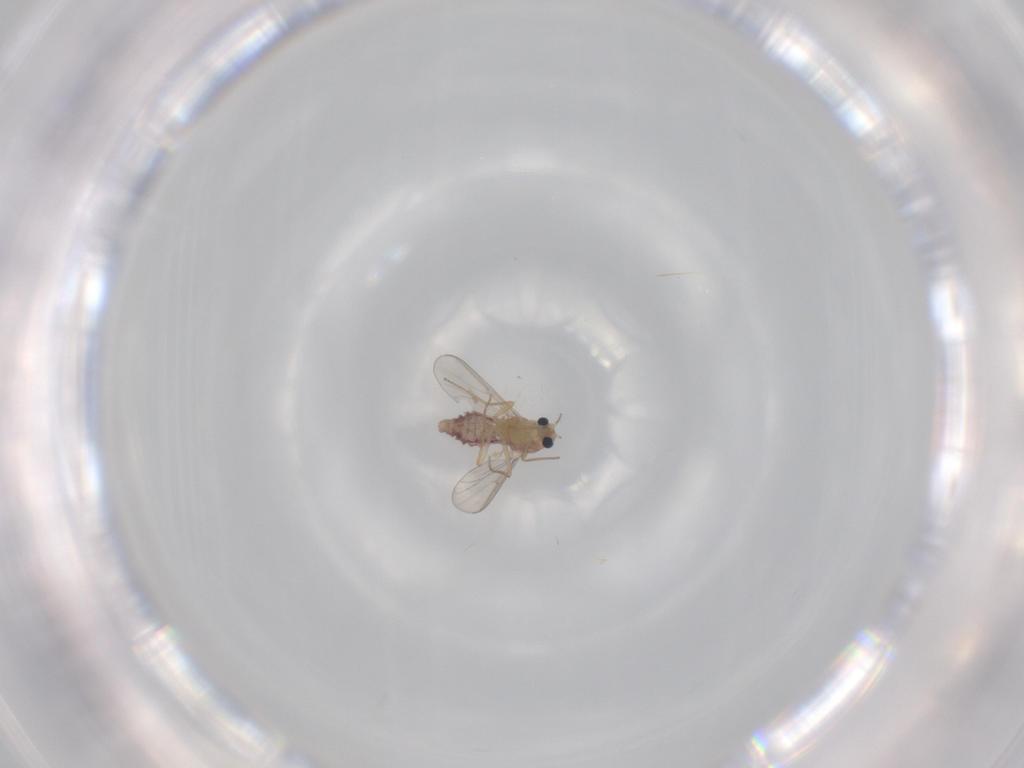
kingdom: Animalia
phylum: Arthropoda
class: Insecta
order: Diptera
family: Chironomidae
